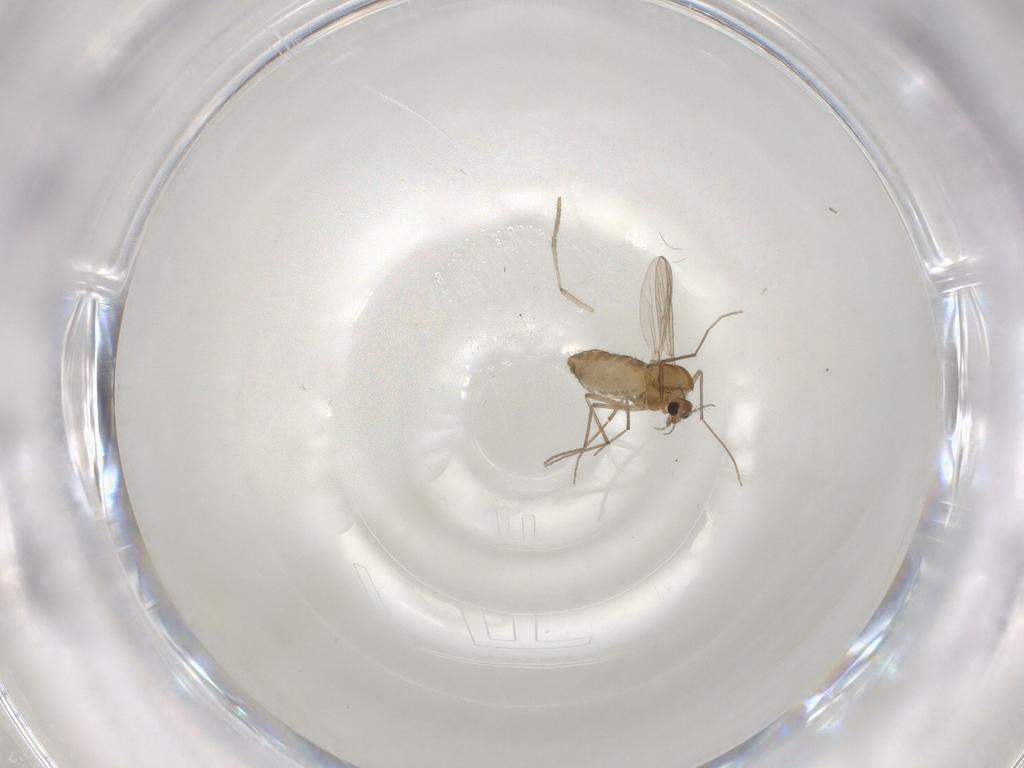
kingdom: Animalia
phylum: Arthropoda
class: Insecta
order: Diptera
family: Chironomidae
